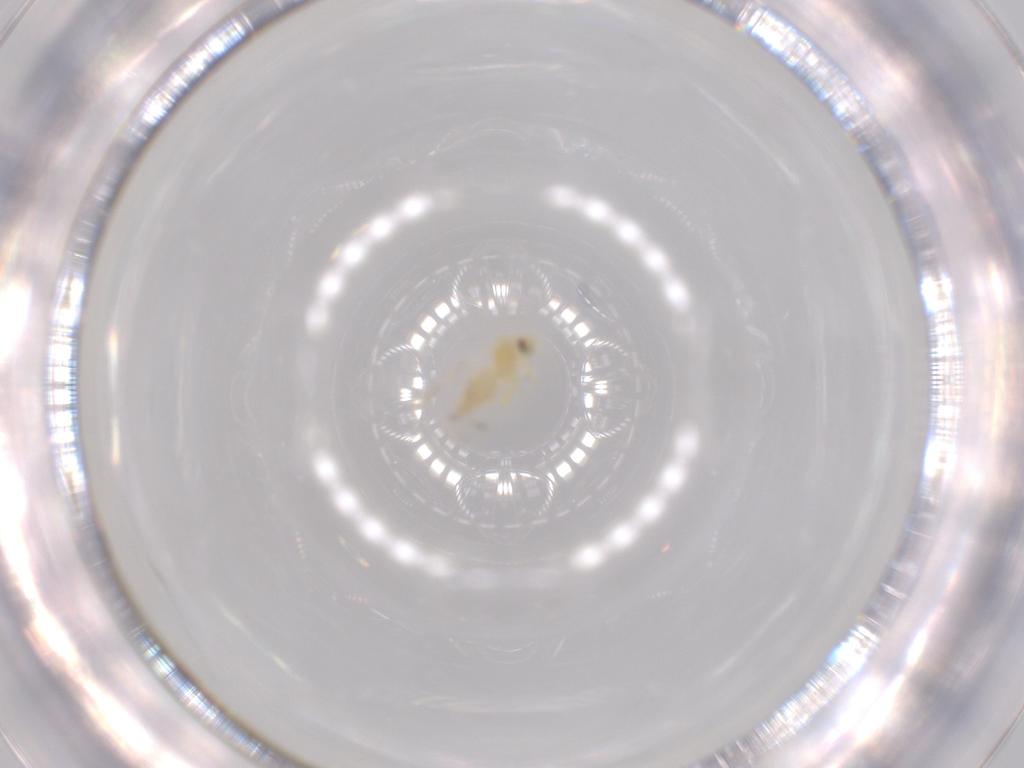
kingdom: Animalia
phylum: Arthropoda
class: Insecta
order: Hemiptera
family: Aleyrodidae
